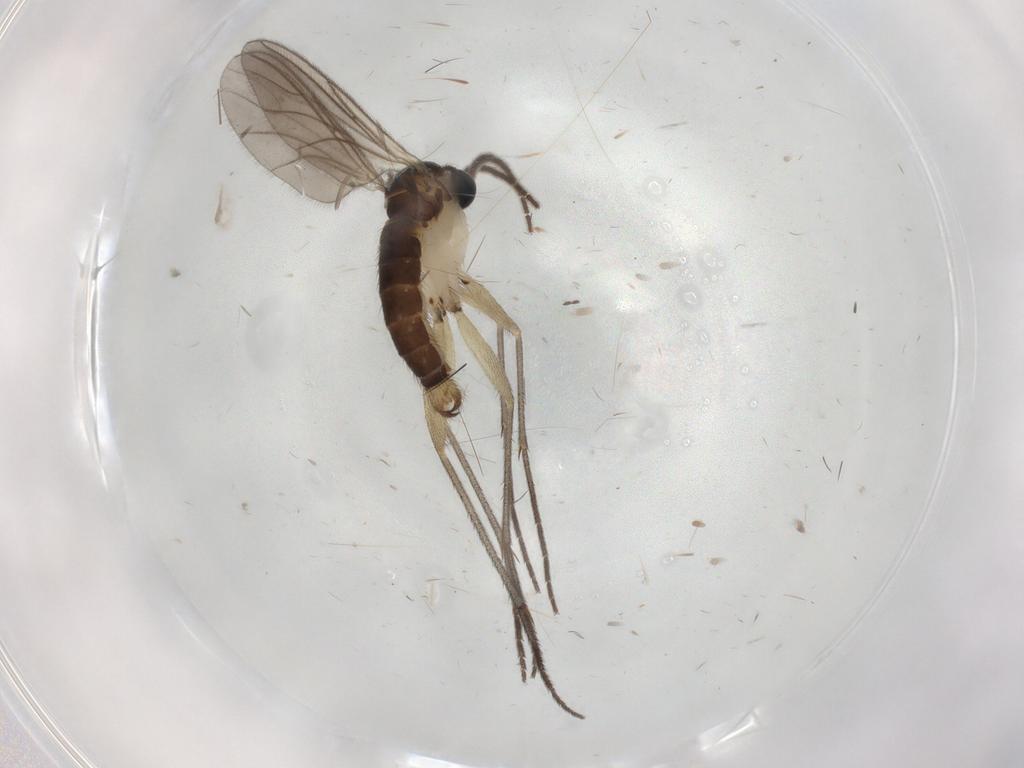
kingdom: Animalia
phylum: Arthropoda
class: Insecta
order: Diptera
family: Sciaridae
